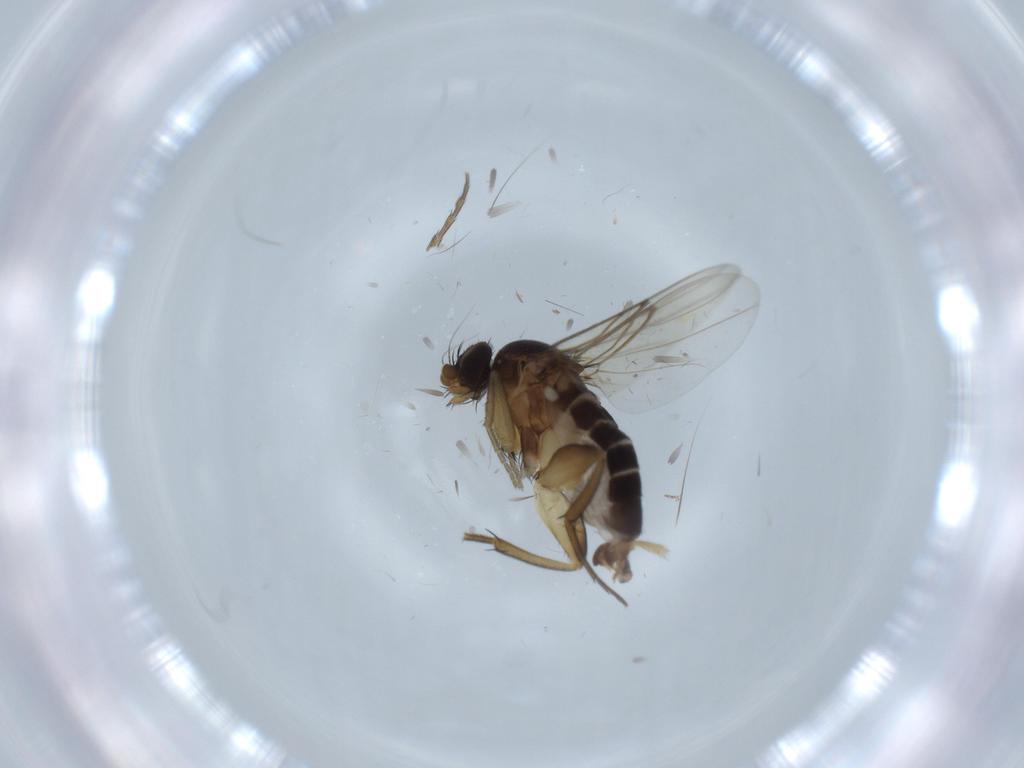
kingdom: Animalia
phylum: Arthropoda
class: Insecta
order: Diptera
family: Phoridae
